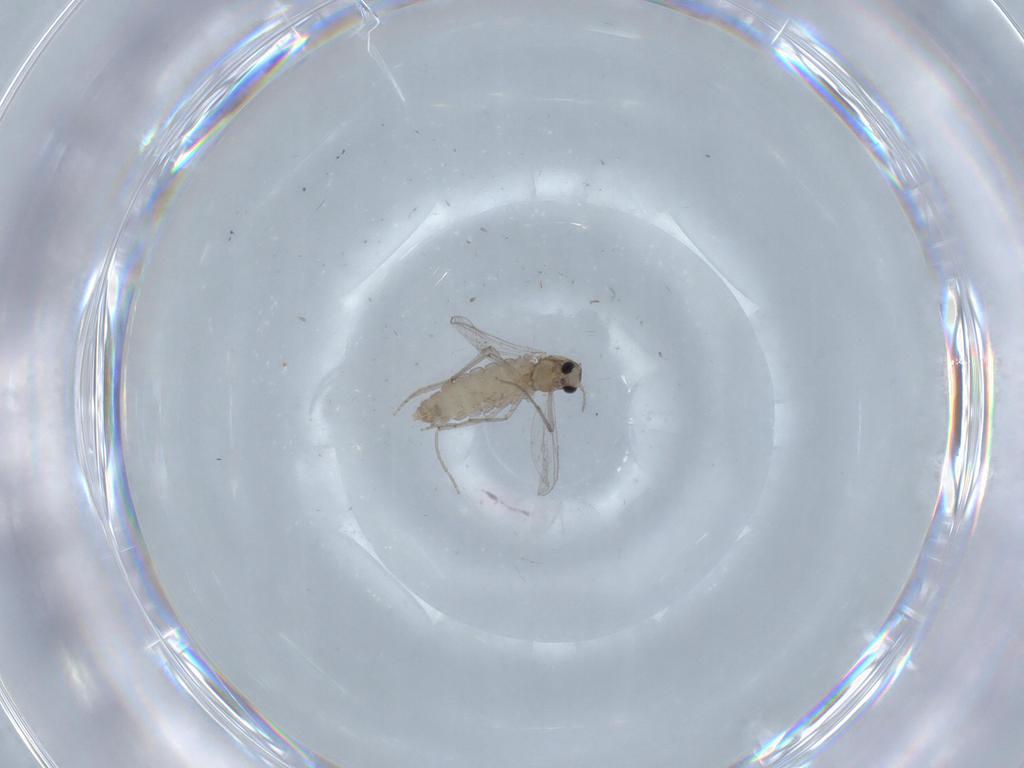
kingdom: Animalia
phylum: Arthropoda
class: Insecta
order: Diptera
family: Chironomidae
